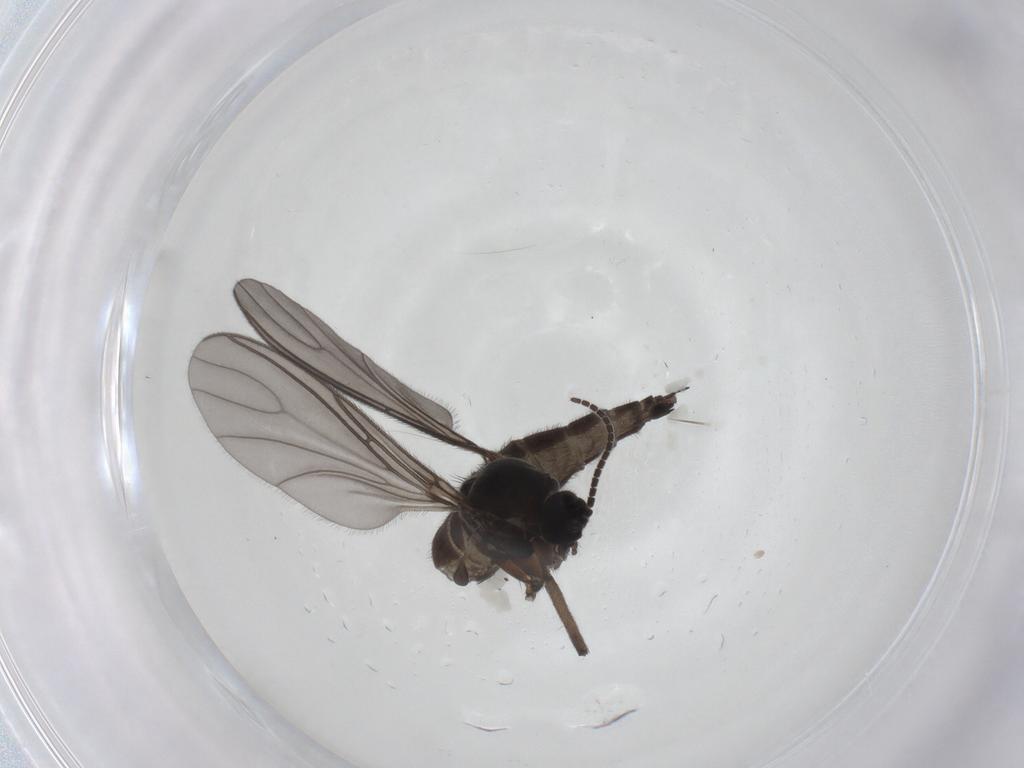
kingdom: Animalia
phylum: Arthropoda
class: Insecta
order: Diptera
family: Sciaridae
